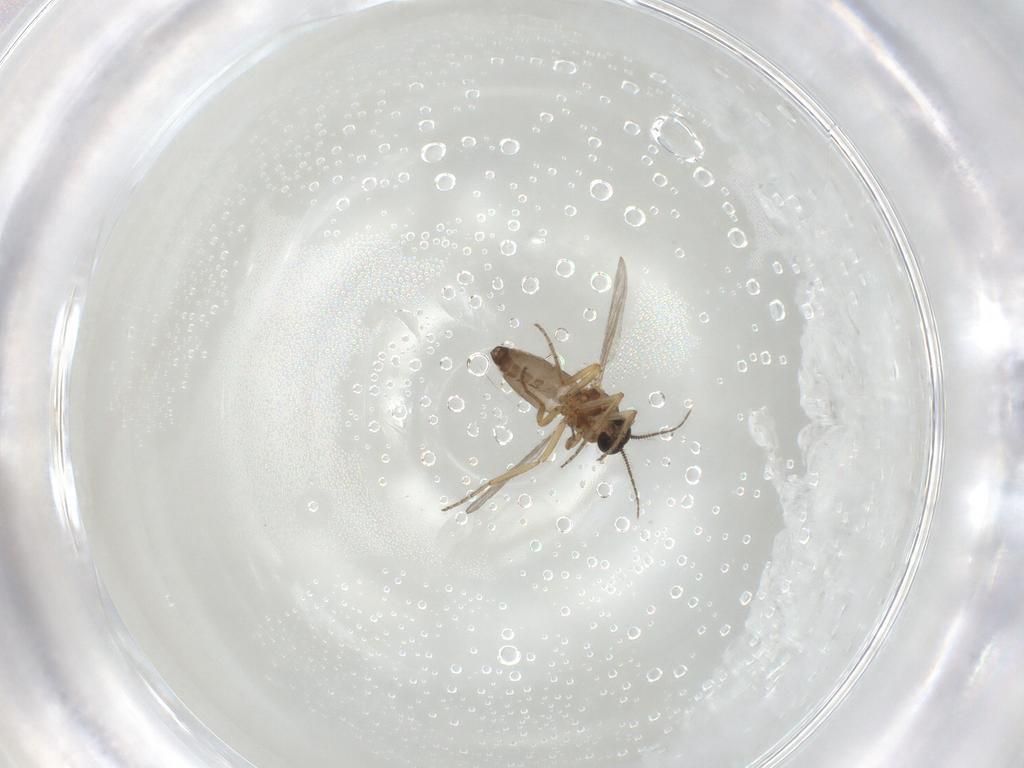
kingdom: Animalia
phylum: Arthropoda
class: Insecta
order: Diptera
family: Ceratopogonidae
